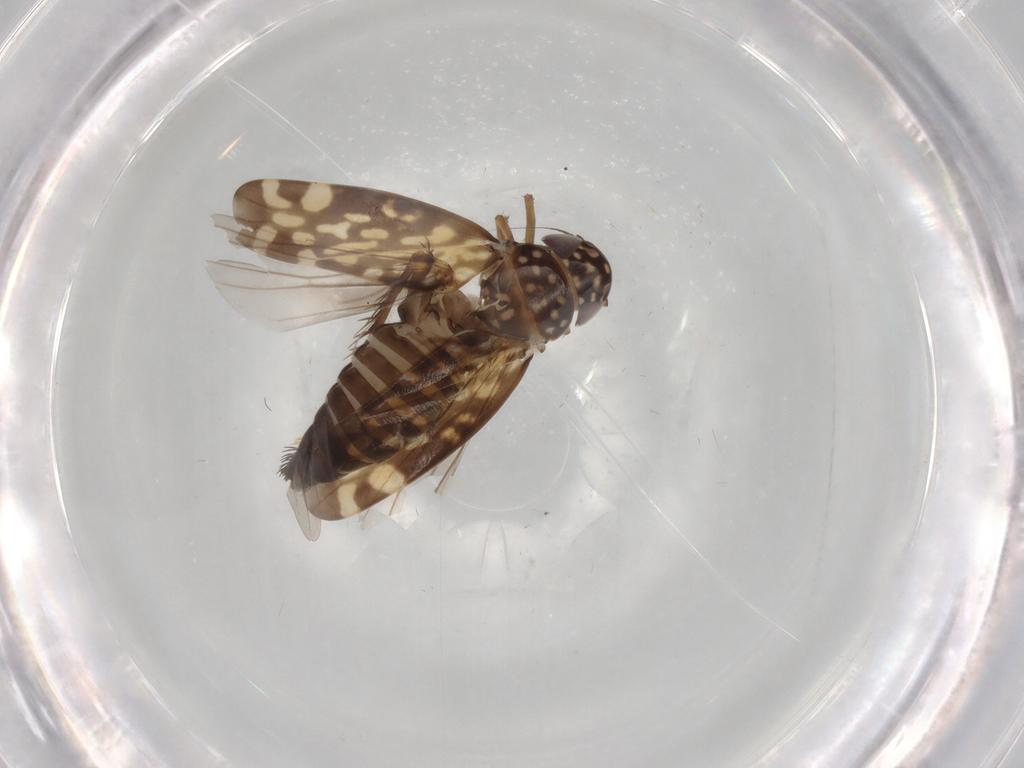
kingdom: Animalia
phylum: Arthropoda
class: Insecta
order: Hemiptera
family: Cicadellidae
